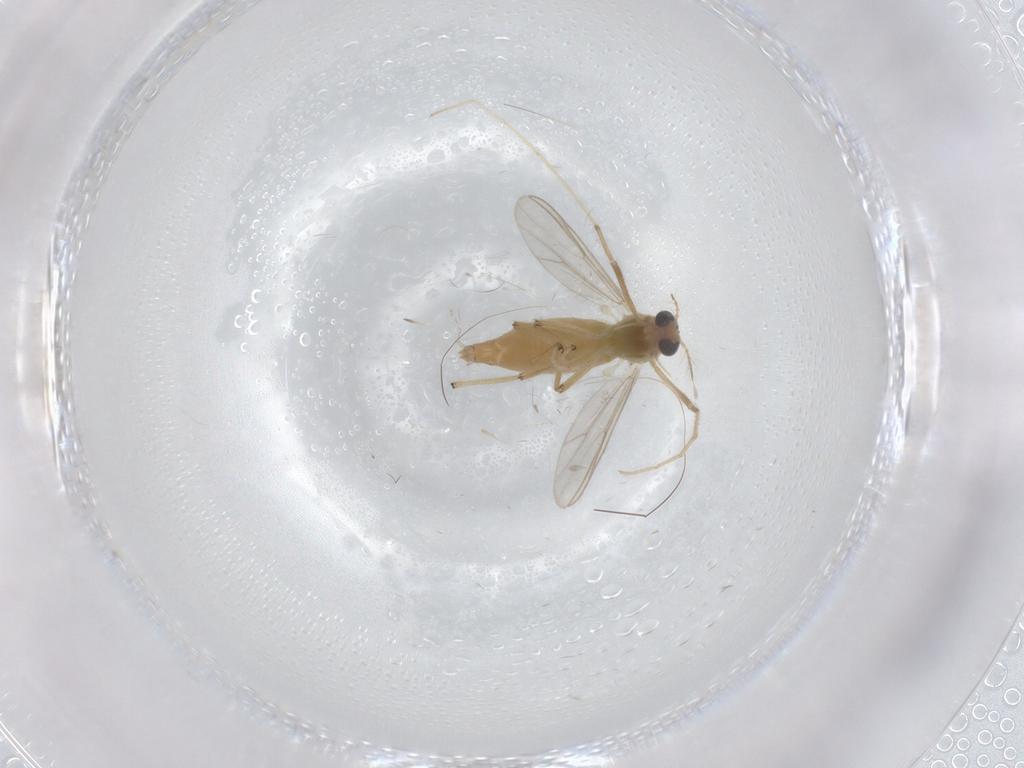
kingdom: Animalia
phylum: Arthropoda
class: Insecta
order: Diptera
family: Chironomidae
